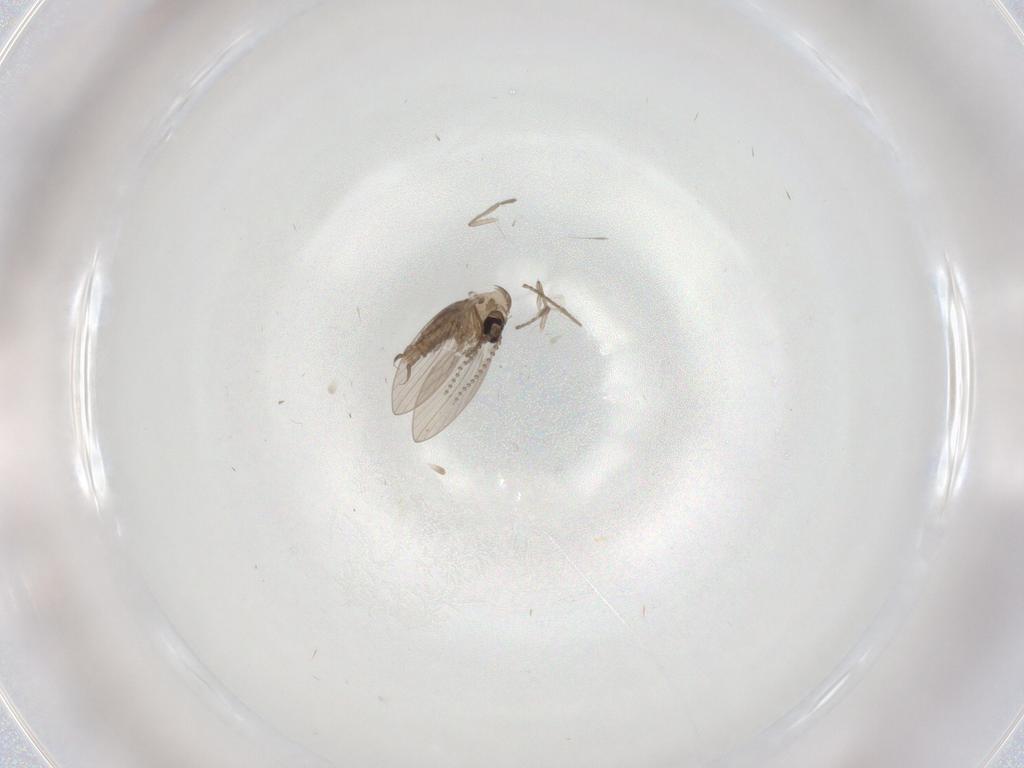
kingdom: Animalia
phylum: Arthropoda
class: Insecta
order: Diptera
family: Psychodidae
